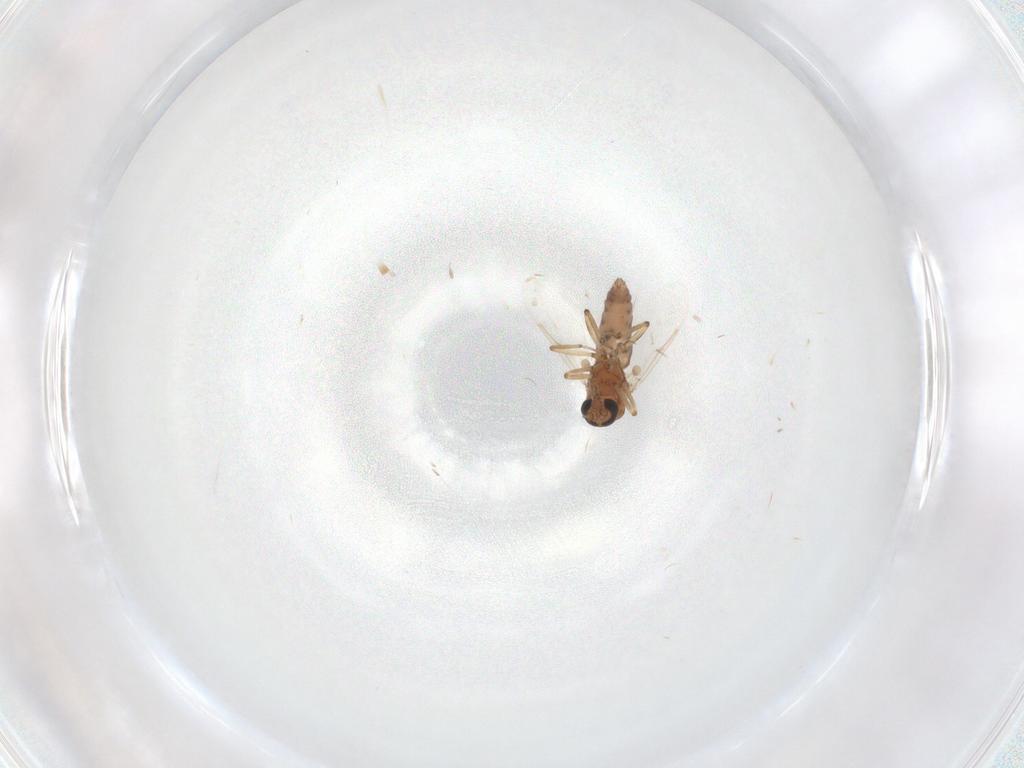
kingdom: Animalia
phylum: Arthropoda
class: Insecta
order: Diptera
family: Ceratopogonidae
